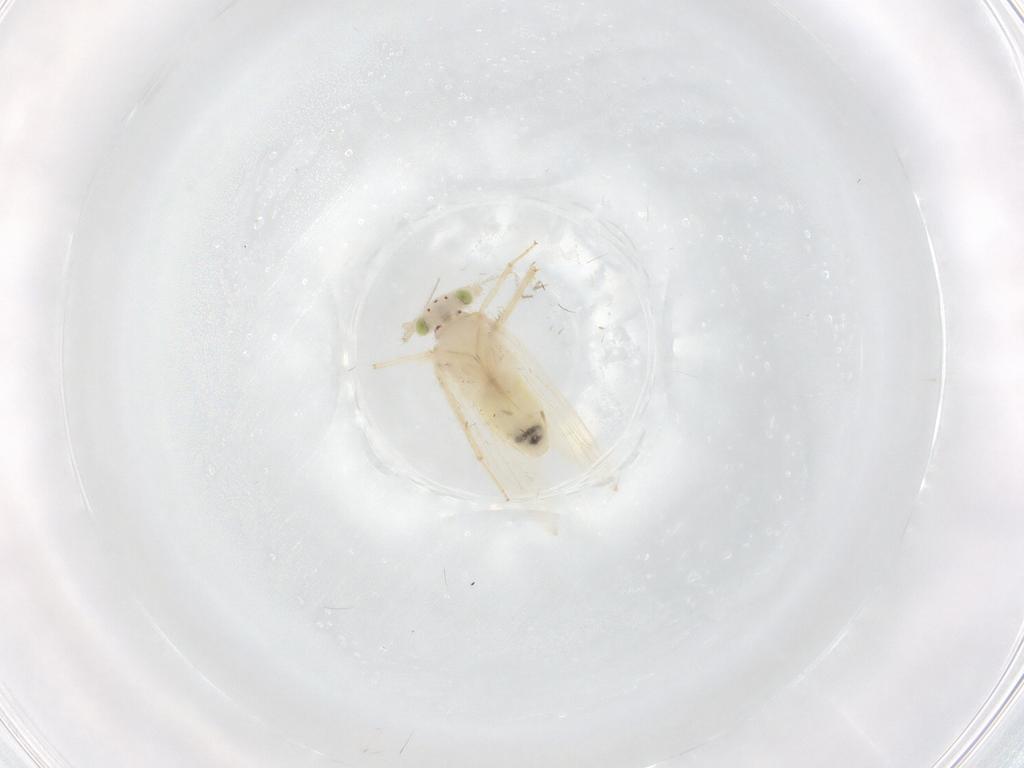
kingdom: Animalia
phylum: Arthropoda
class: Insecta
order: Psocodea
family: Lepidopsocidae
